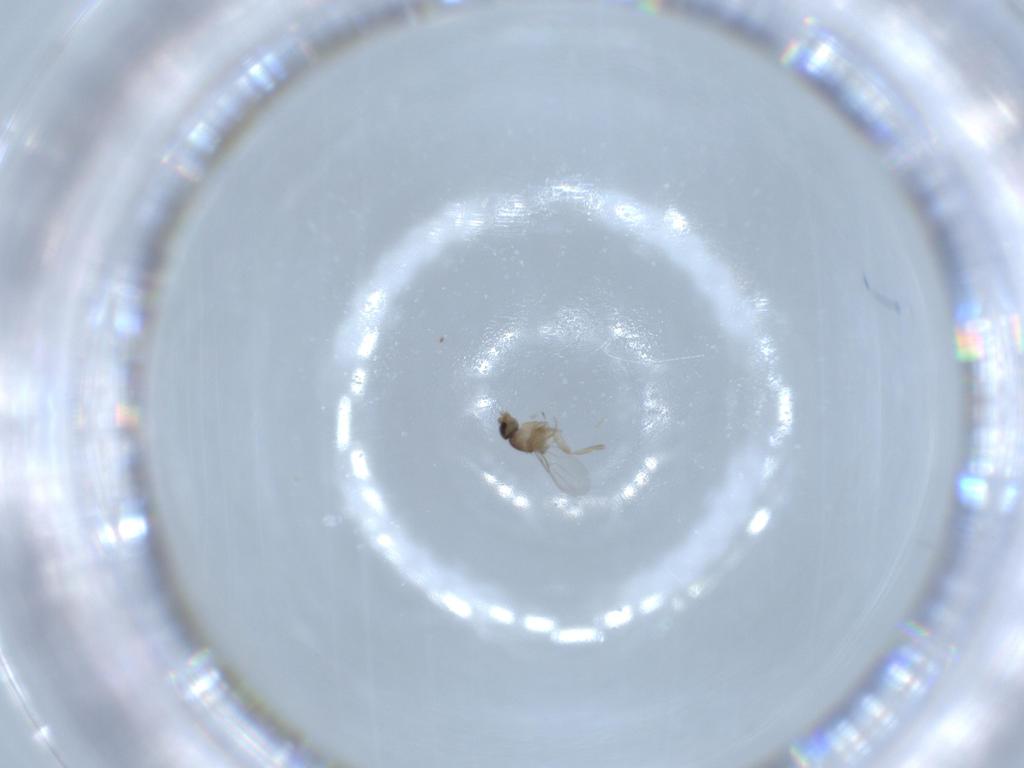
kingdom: Animalia
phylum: Arthropoda
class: Insecta
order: Diptera
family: Phoridae
